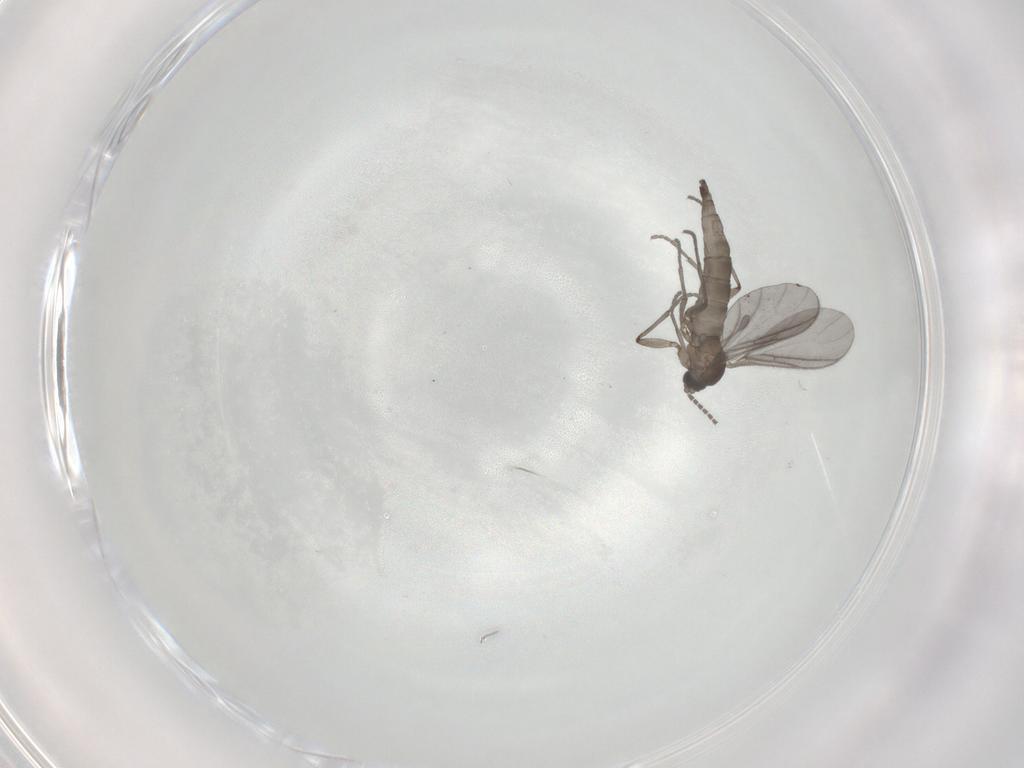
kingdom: Animalia
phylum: Arthropoda
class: Insecta
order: Diptera
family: Sciaridae
